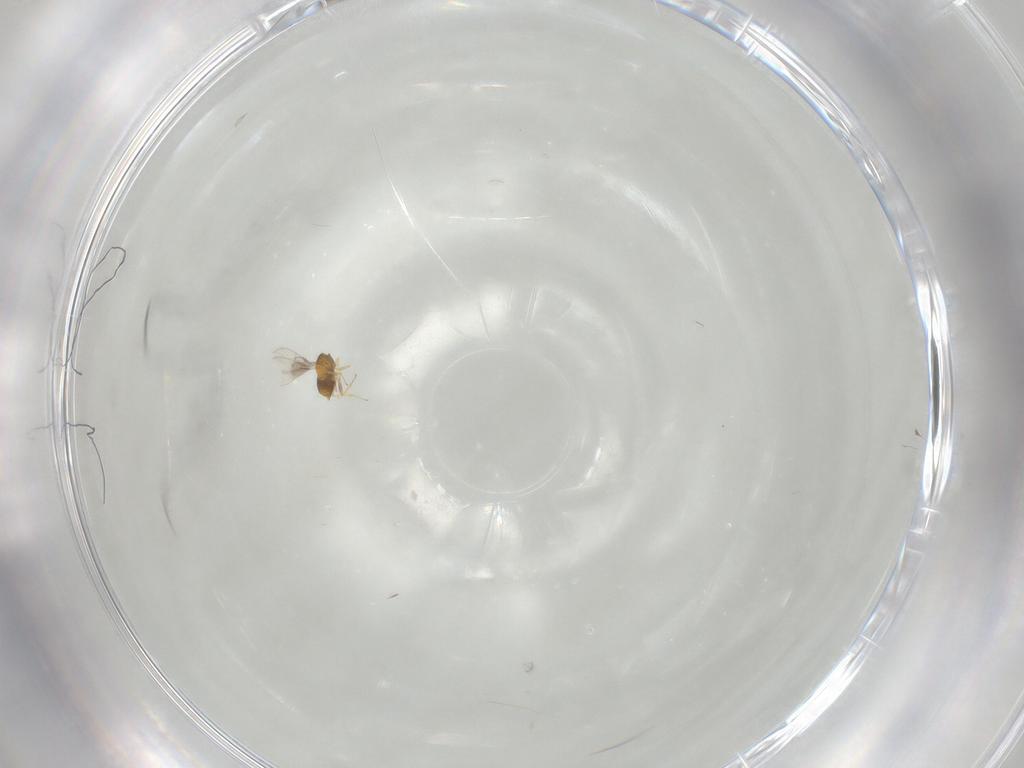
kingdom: Animalia
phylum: Arthropoda
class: Insecta
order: Hymenoptera
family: Trichogrammatidae
